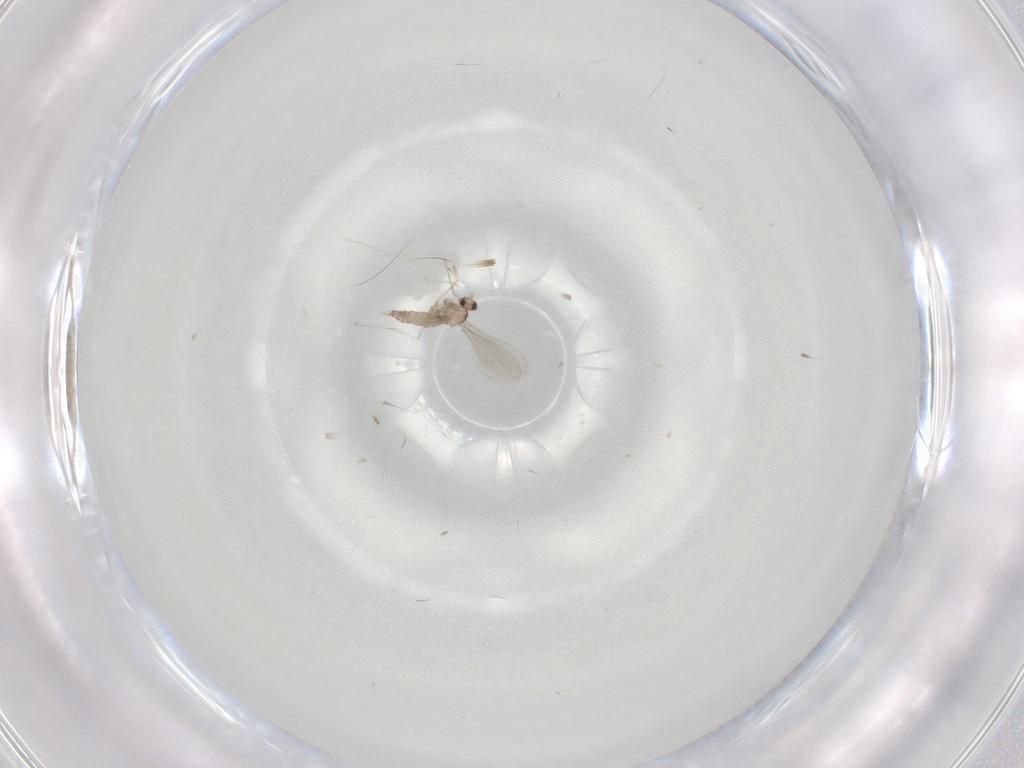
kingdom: Animalia
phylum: Arthropoda
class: Insecta
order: Diptera
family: Cecidomyiidae
